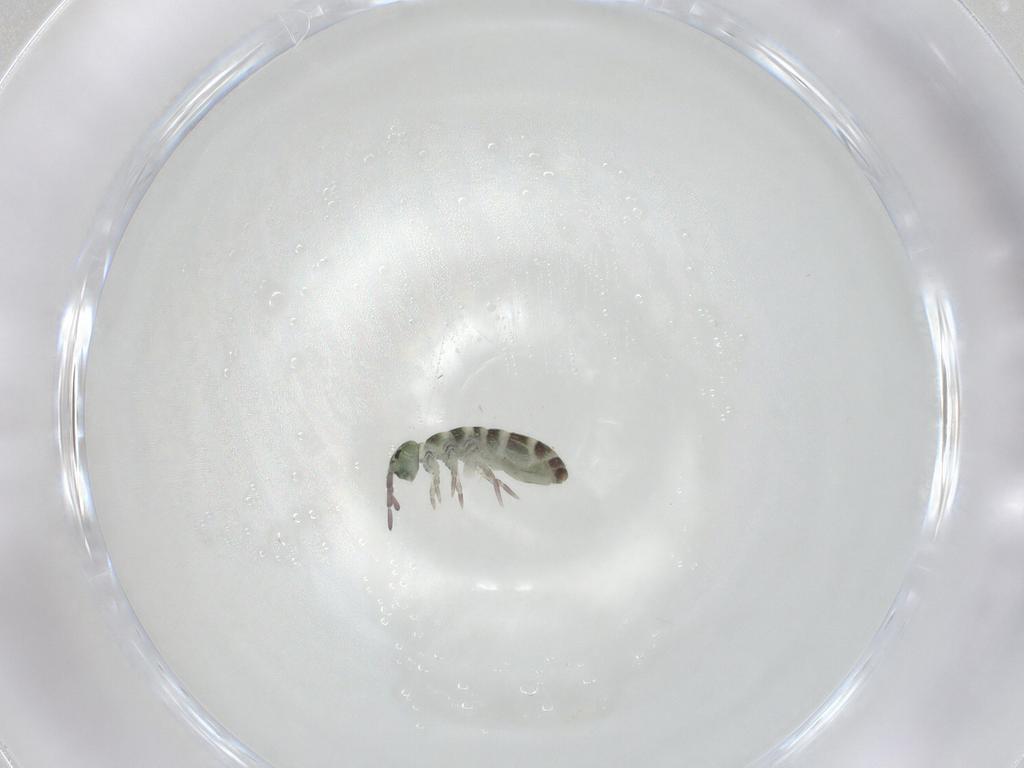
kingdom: Animalia
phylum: Arthropoda
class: Collembola
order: Entomobryomorpha
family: Isotomidae
